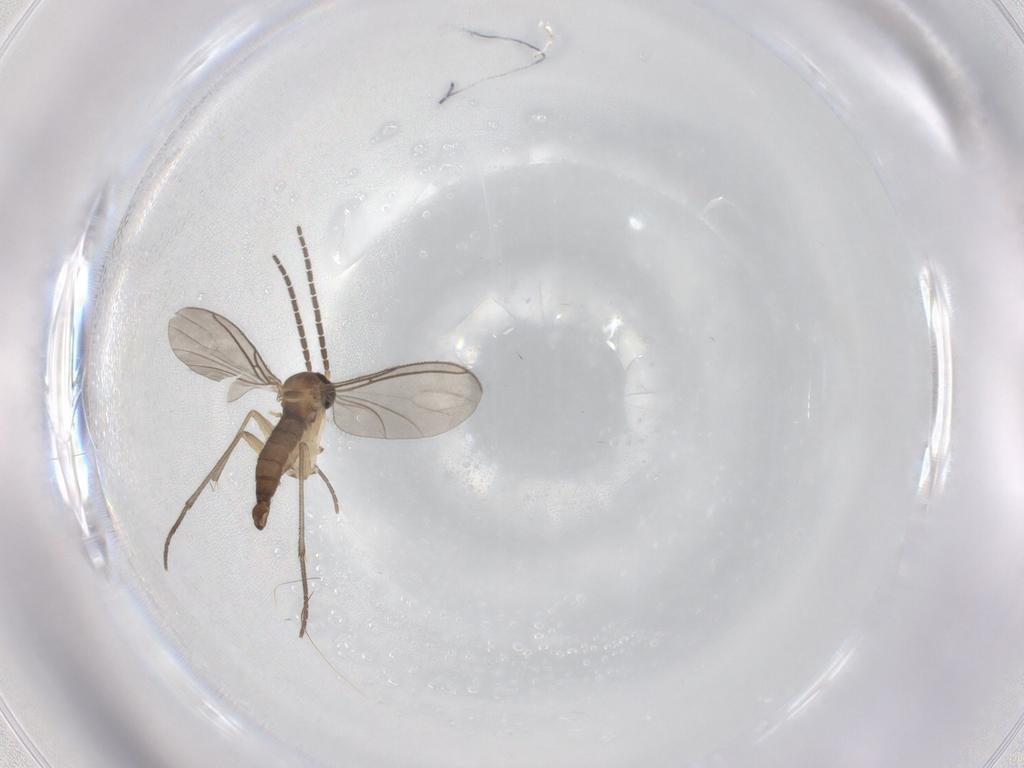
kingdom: Animalia
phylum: Arthropoda
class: Insecta
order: Diptera
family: Sciaridae
